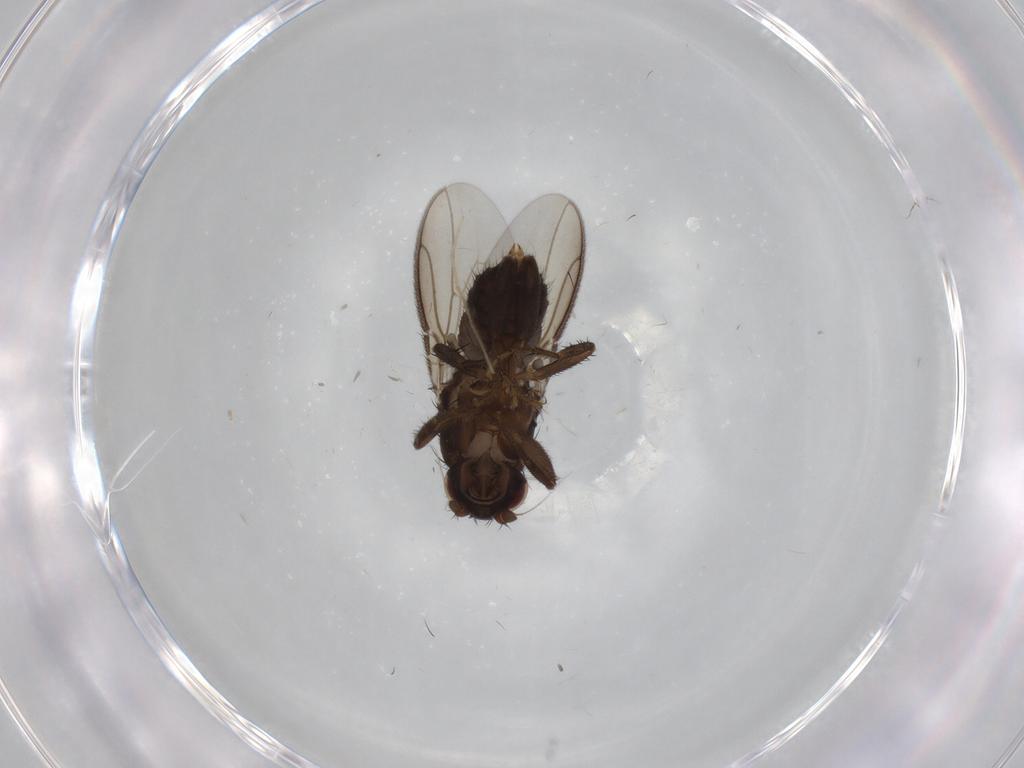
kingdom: Animalia
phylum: Arthropoda
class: Insecta
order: Diptera
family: Sphaeroceridae
